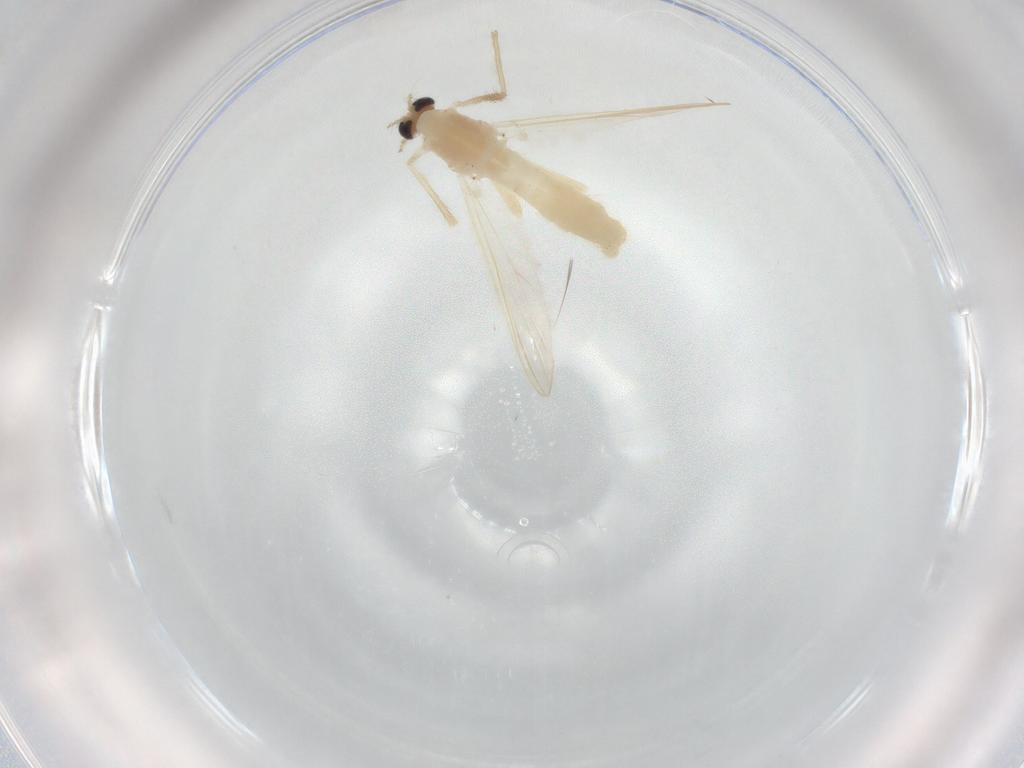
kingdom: Animalia
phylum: Arthropoda
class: Insecta
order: Diptera
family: Chironomidae
